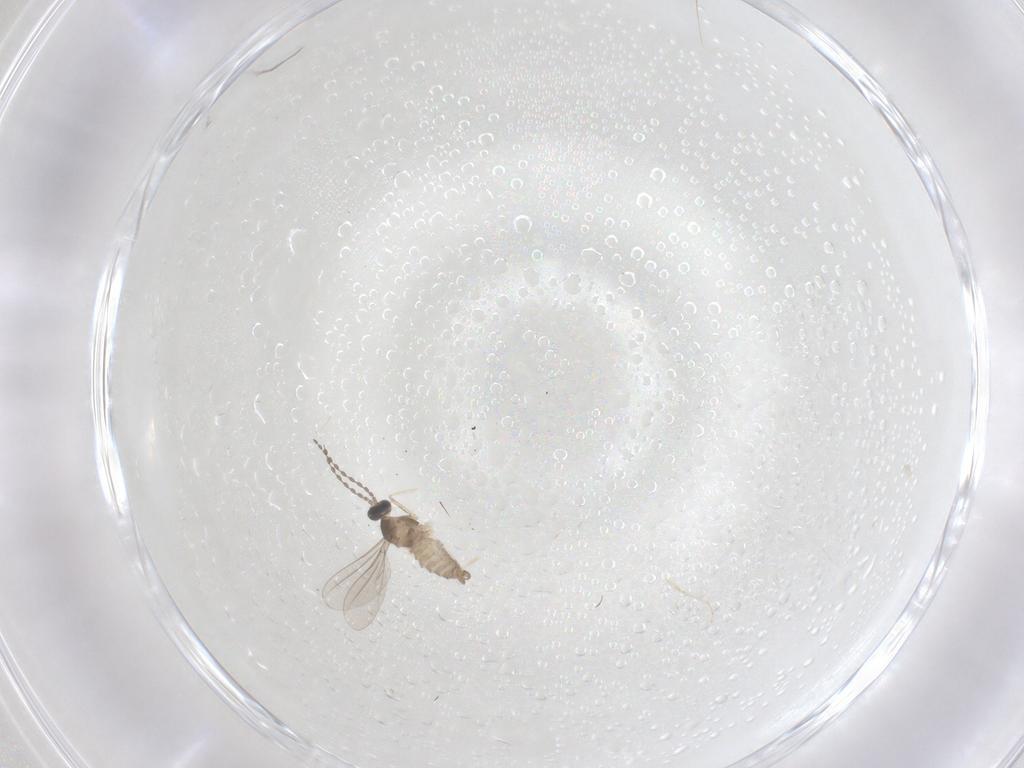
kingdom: Animalia
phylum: Arthropoda
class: Insecta
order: Diptera
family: Cecidomyiidae
